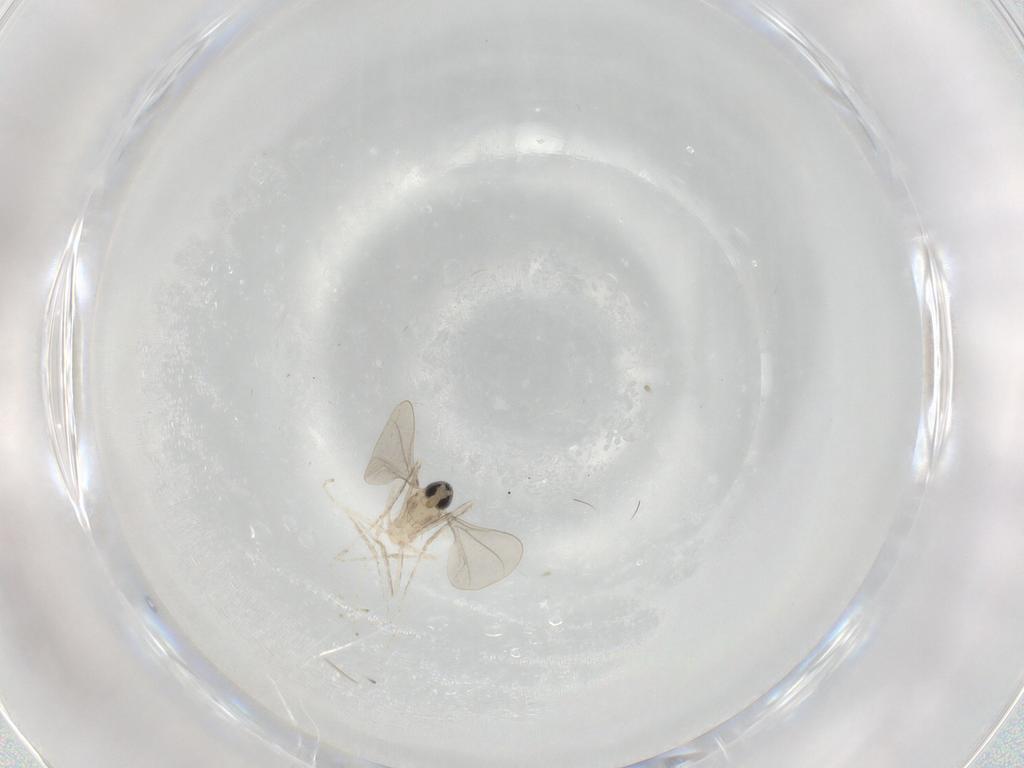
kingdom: Animalia
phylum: Arthropoda
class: Insecta
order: Diptera
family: Cecidomyiidae
